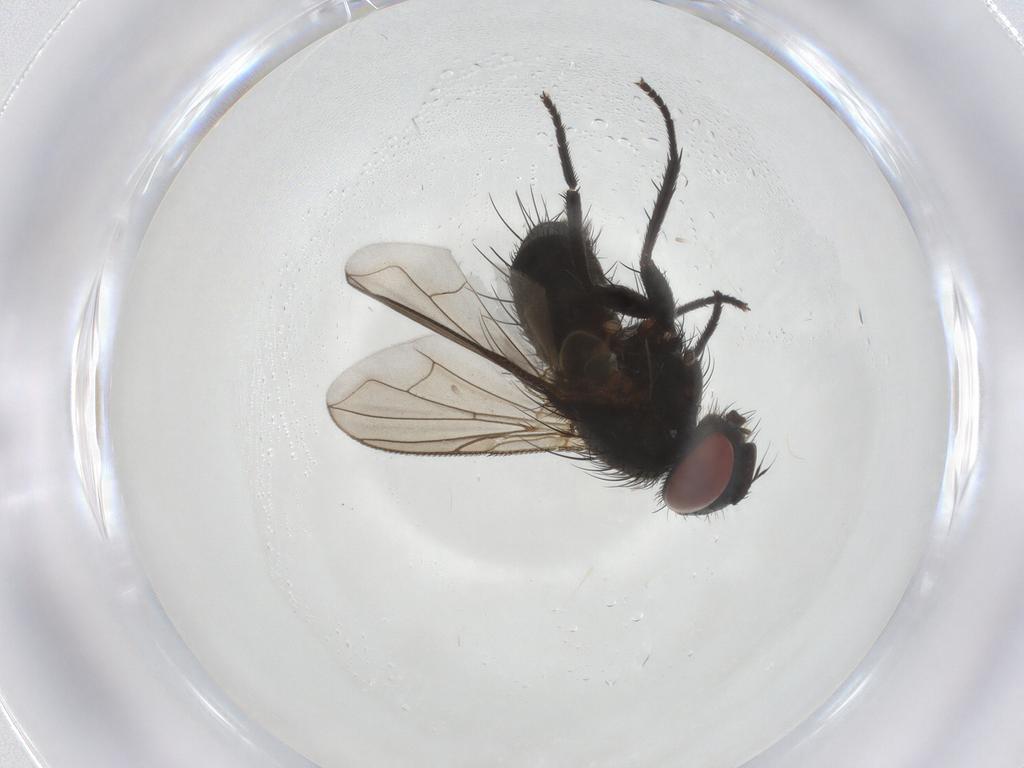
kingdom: Animalia
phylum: Arthropoda
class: Insecta
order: Diptera
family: Tachinidae
